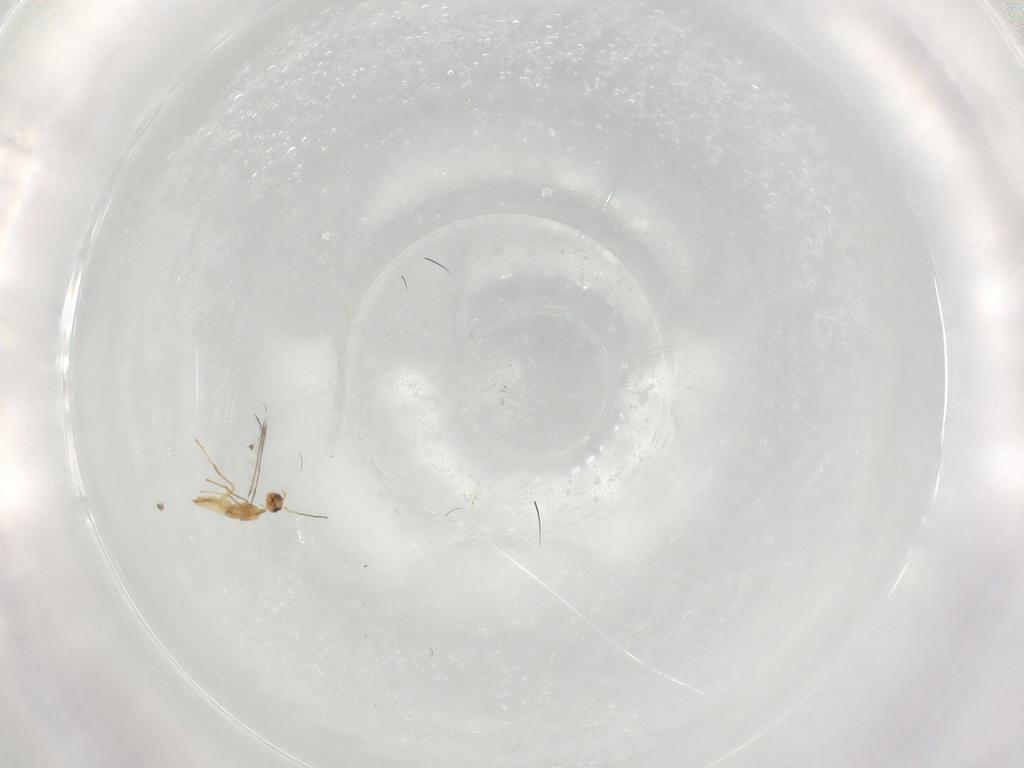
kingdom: Animalia
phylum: Arthropoda
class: Insecta
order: Hymenoptera
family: Mymaridae
